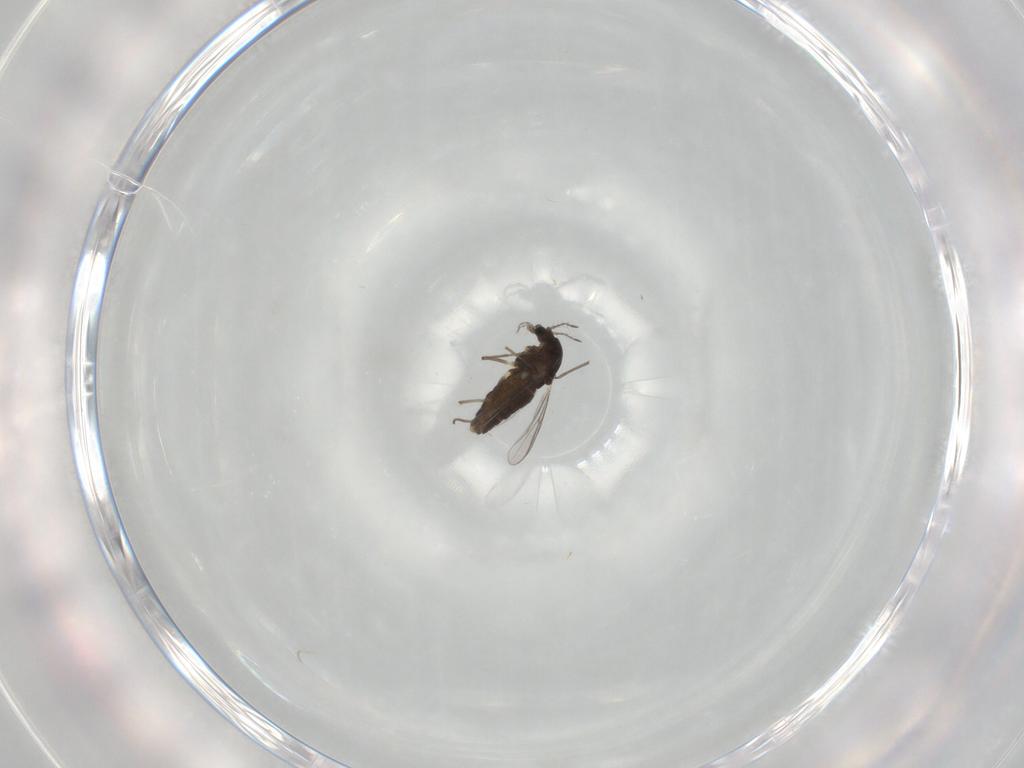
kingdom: Animalia
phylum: Arthropoda
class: Insecta
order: Diptera
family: Chironomidae
